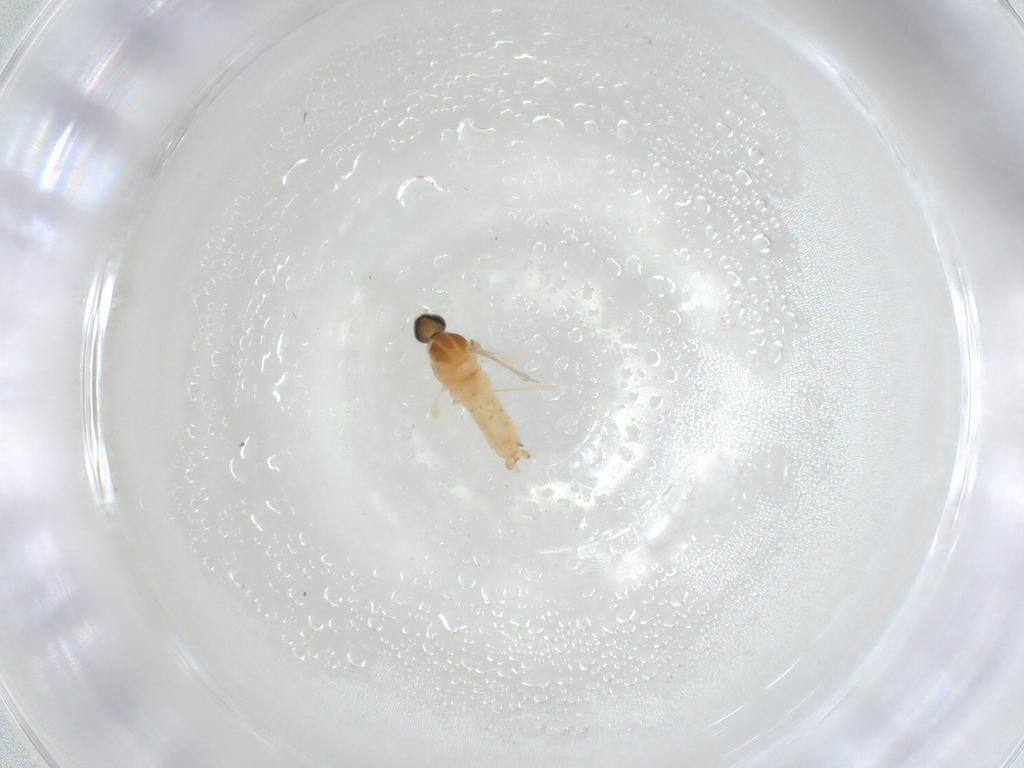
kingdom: Animalia
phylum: Arthropoda
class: Insecta
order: Diptera
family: Cecidomyiidae
